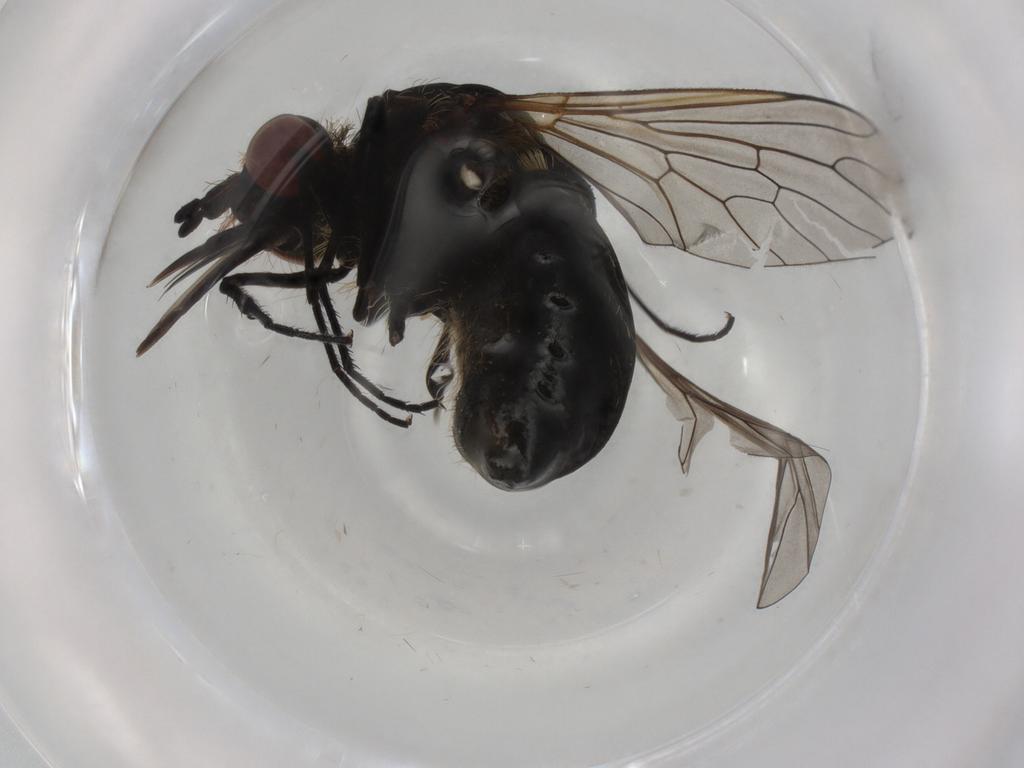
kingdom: Animalia
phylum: Arthropoda
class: Insecta
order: Diptera
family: Bombyliidae
